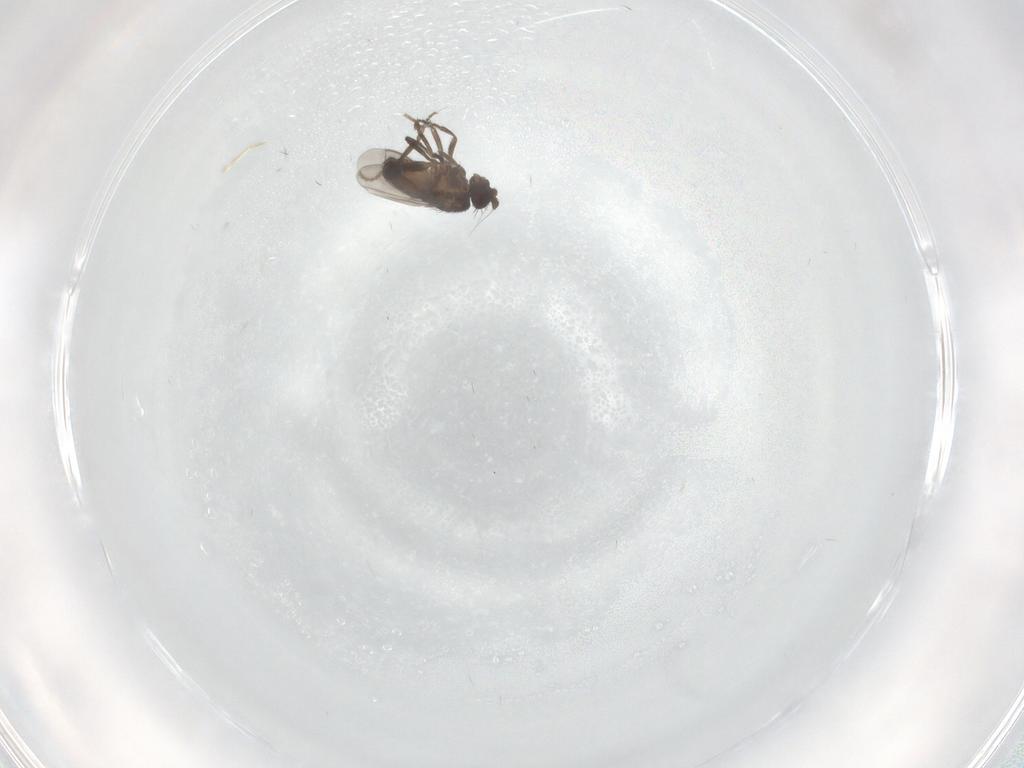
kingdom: Animalia
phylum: Arthropoda
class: Insecta
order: Diptera
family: Sphaeroceridae
